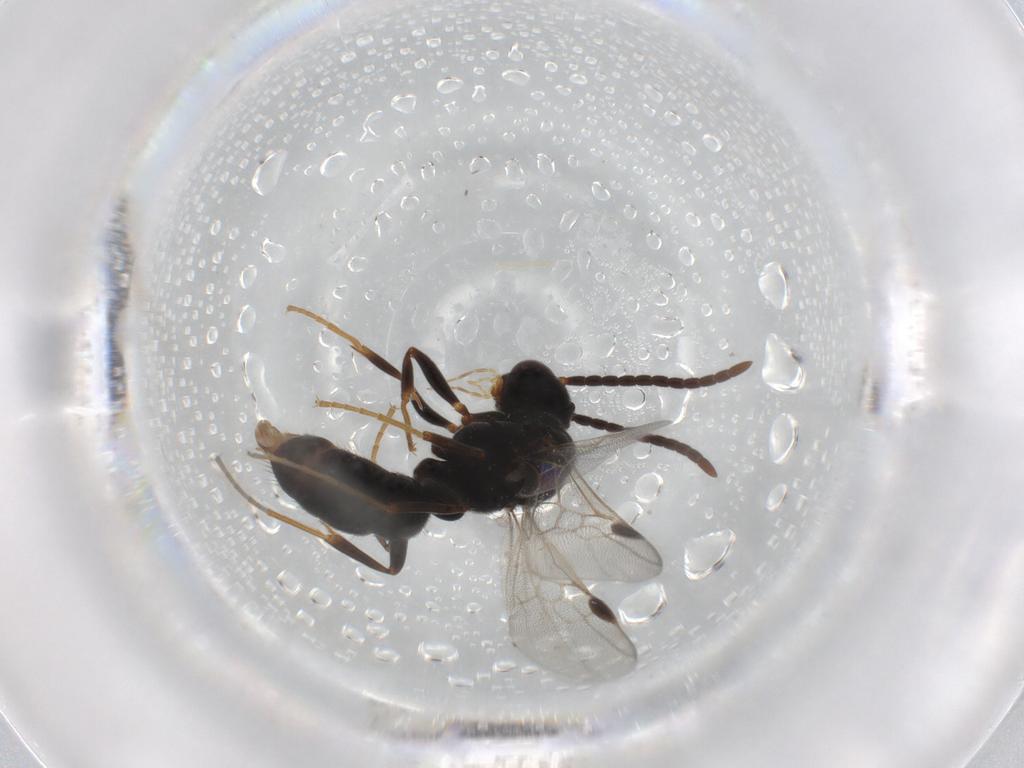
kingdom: Animalia
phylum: Arthropoda
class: Insecta
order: Hymenoptera
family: Formicidae
